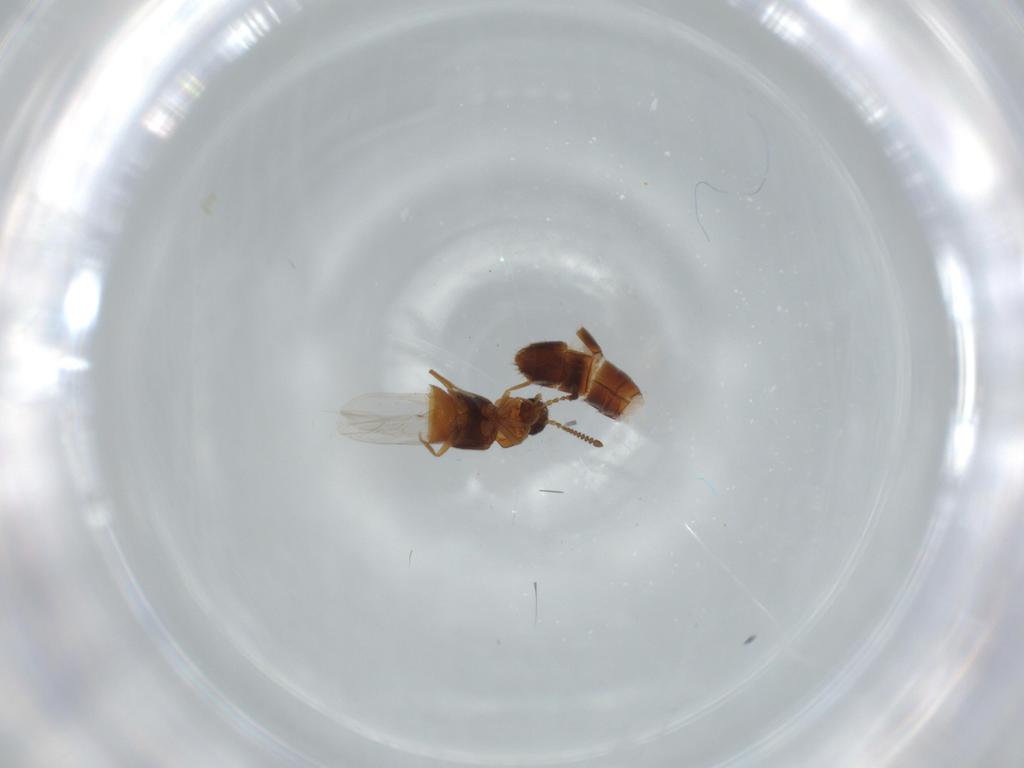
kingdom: Animalia
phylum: Arthropoda
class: Insecta
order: Coleoptera
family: Staphylinidae
